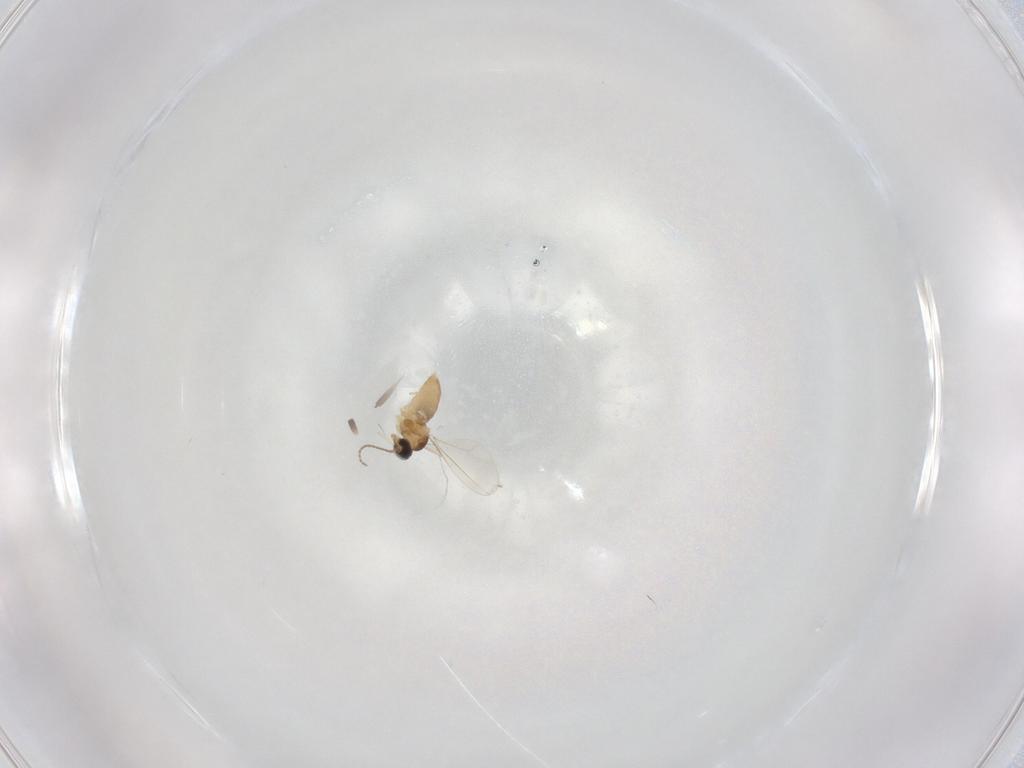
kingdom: Animalia
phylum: Arthropoda
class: Insecta
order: Diptera
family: Cecidomyiidae
